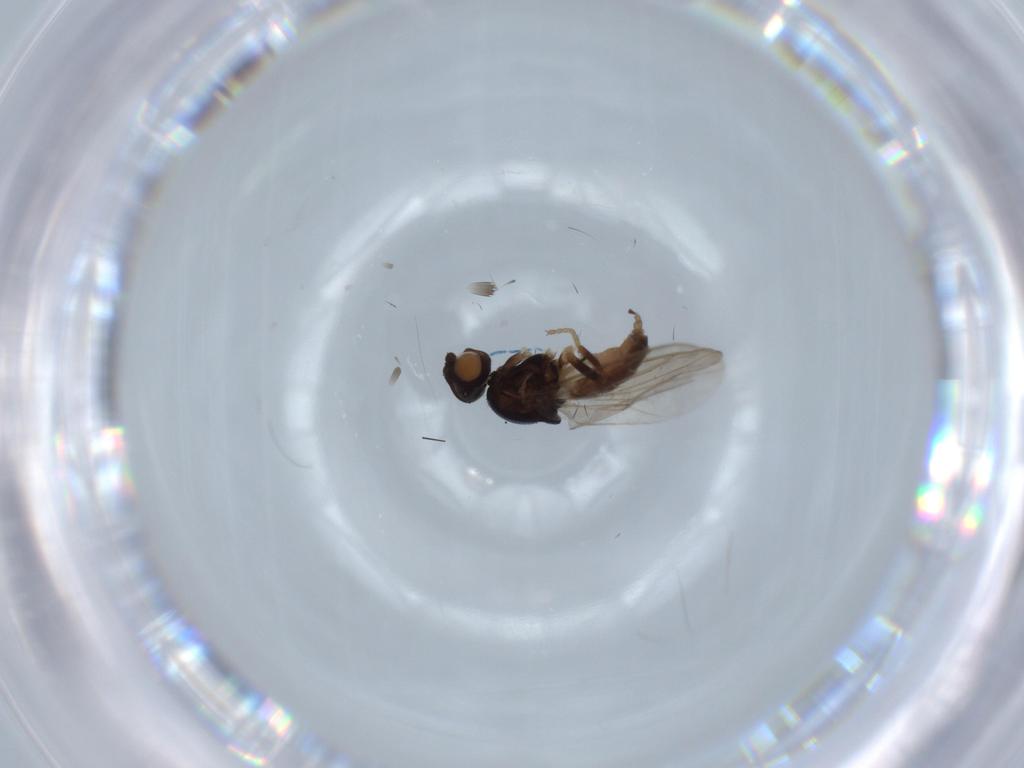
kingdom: Animalia
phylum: Arthropoda
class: Insecta
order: Diptera
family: Chloropidae
